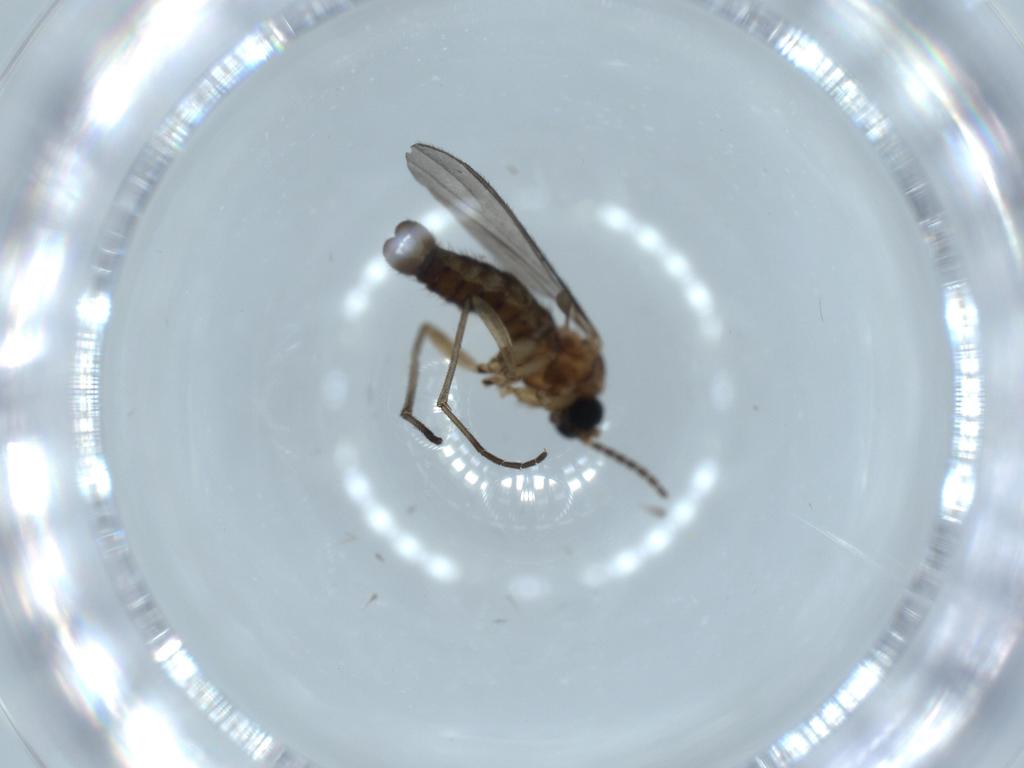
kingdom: Animalia
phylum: Arthropoda
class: Insecta
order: Diptera
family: Sciaridae
